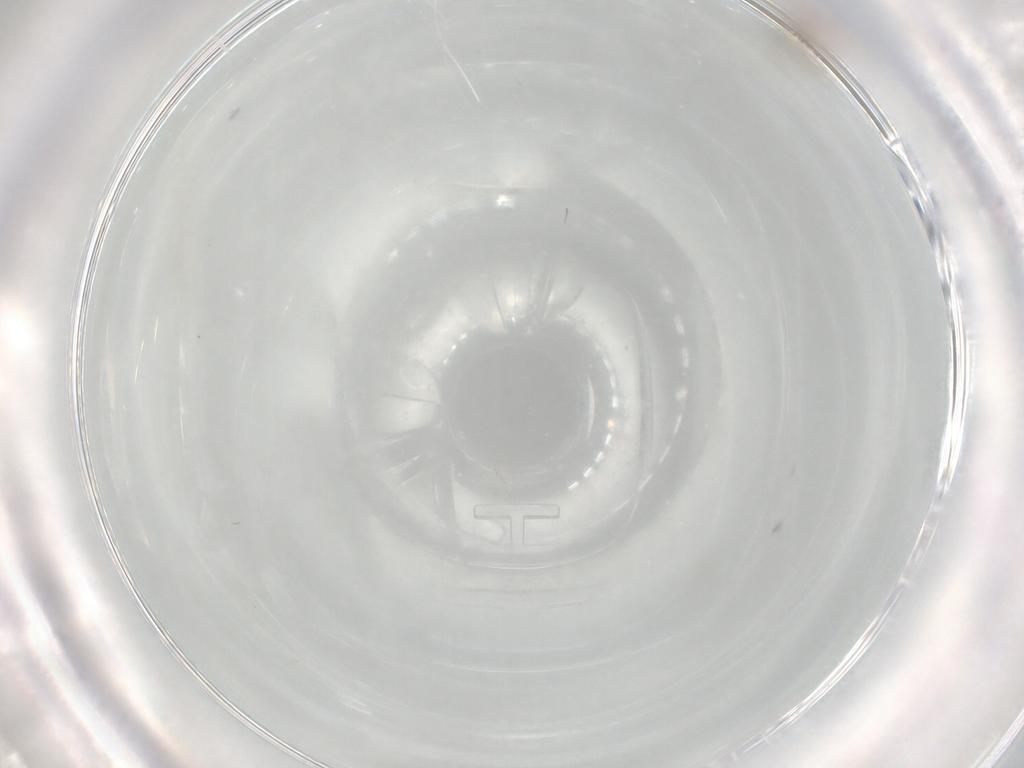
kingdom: Animalia
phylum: Arthropoda
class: Insecta
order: Diptera
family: Cecidomyiidae
